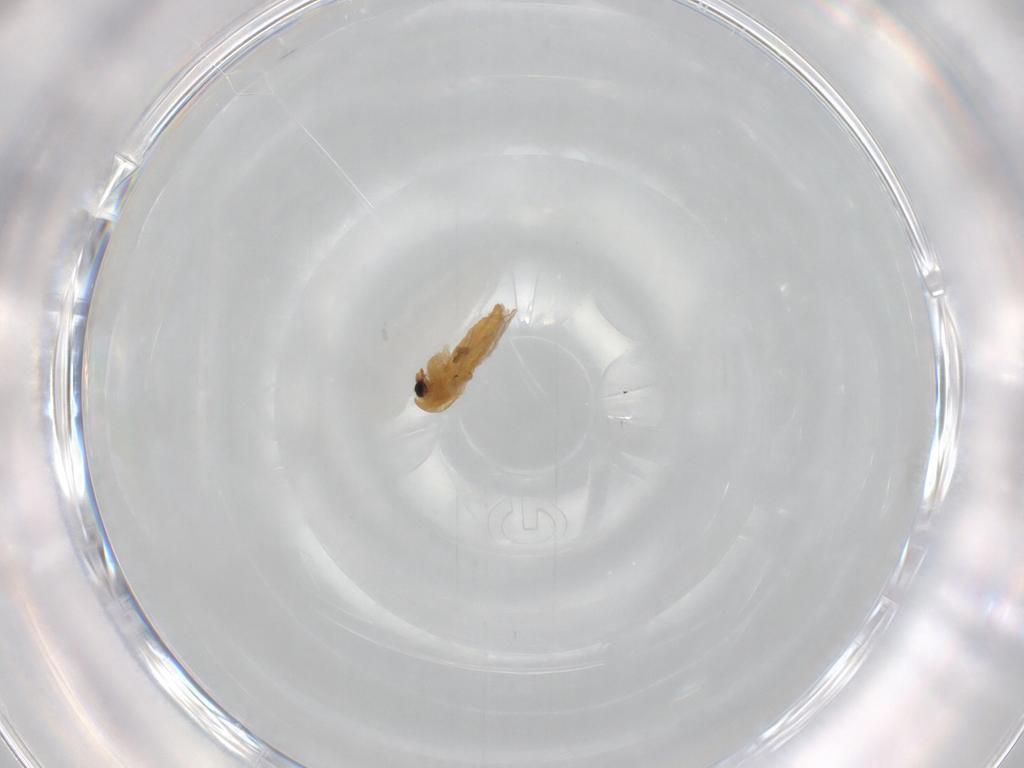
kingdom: Animalia
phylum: Arthropoda
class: Insecta
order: Diptera
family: Chironomidae
